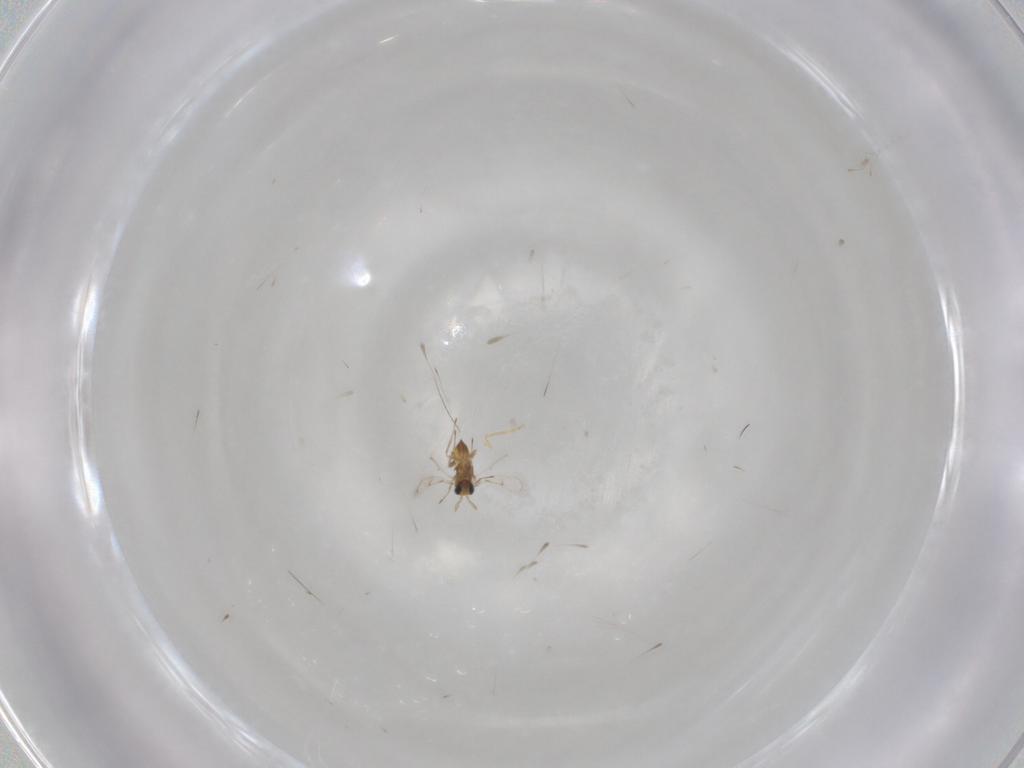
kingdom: Animalia
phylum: Arthropoda
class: Insecta
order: Hymenoptera
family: Trichogrammatidae
